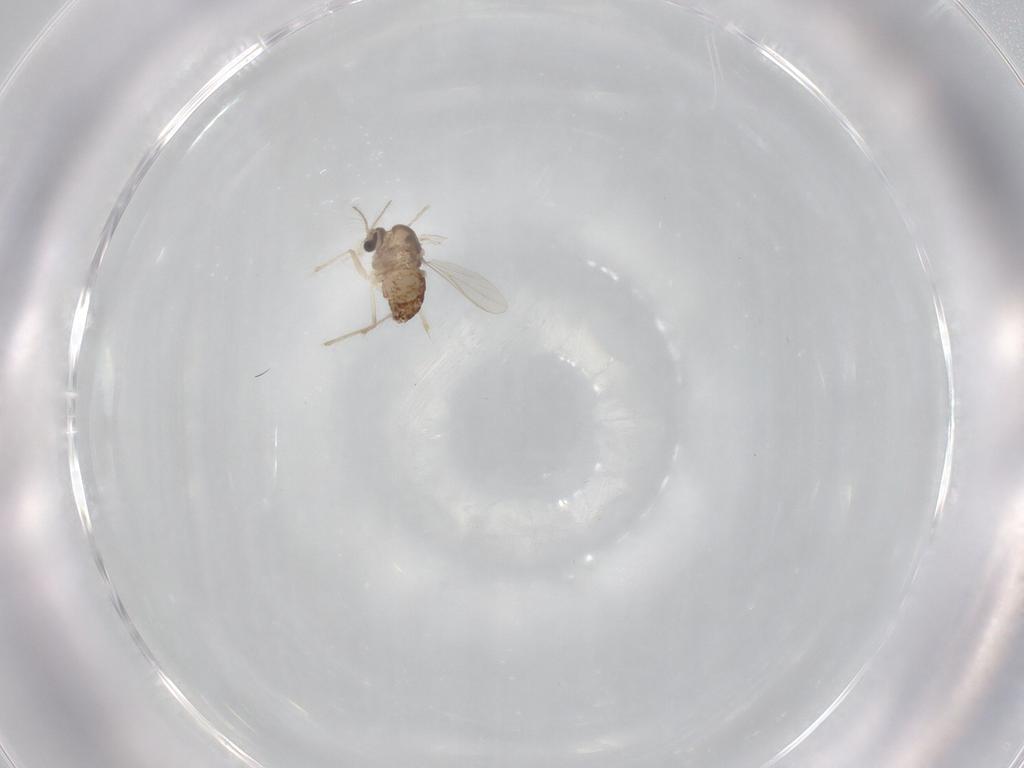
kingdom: Animalia
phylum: Arthropoda
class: Insecta
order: Diptera
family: Chironomidae
